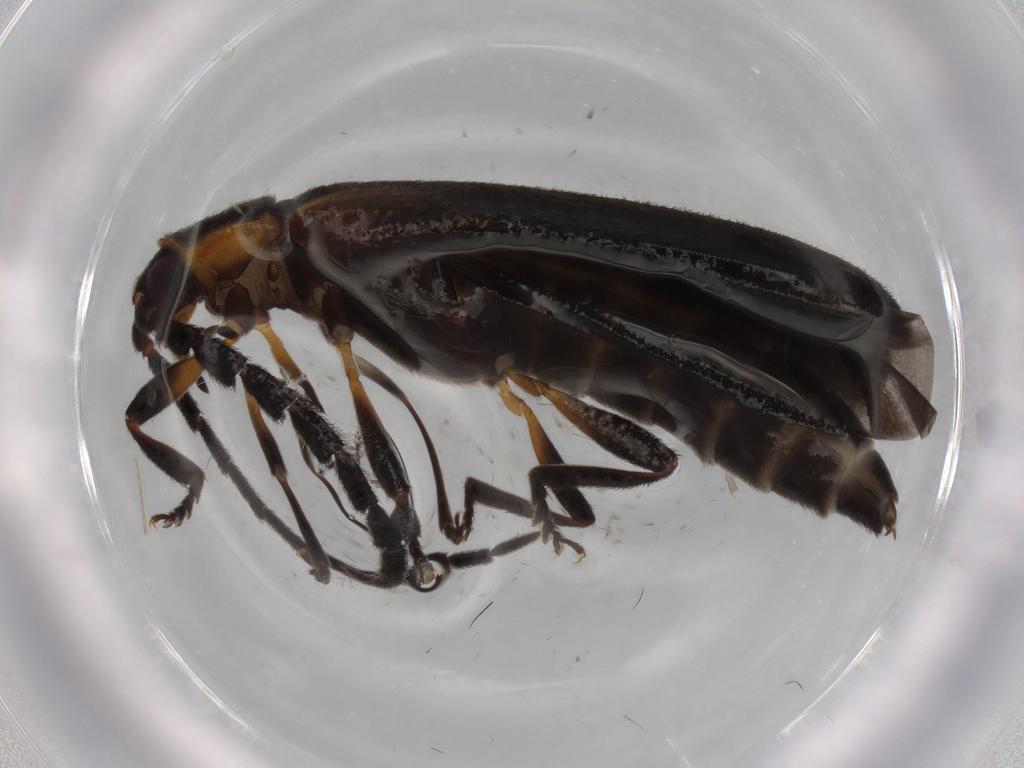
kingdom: Animalia
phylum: Arthropoda
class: Insecta
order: Coleoptera
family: Lycidae
